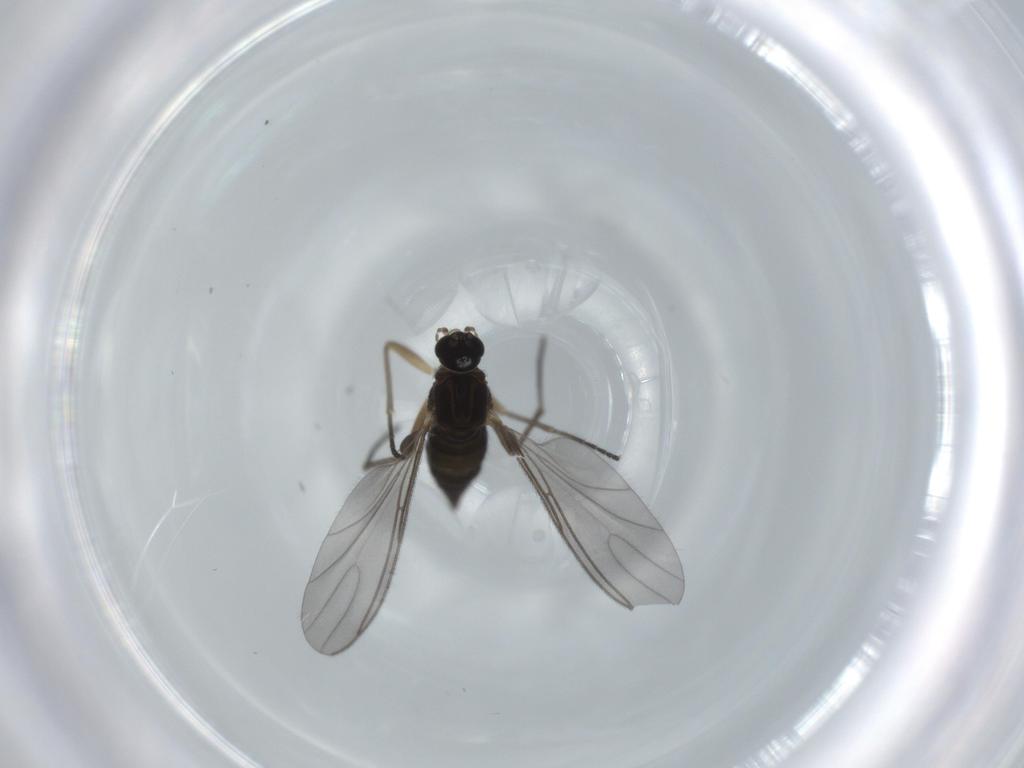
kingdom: Animalia
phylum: Arthropoda
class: Insecta
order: Diptera
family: Sciaridae
